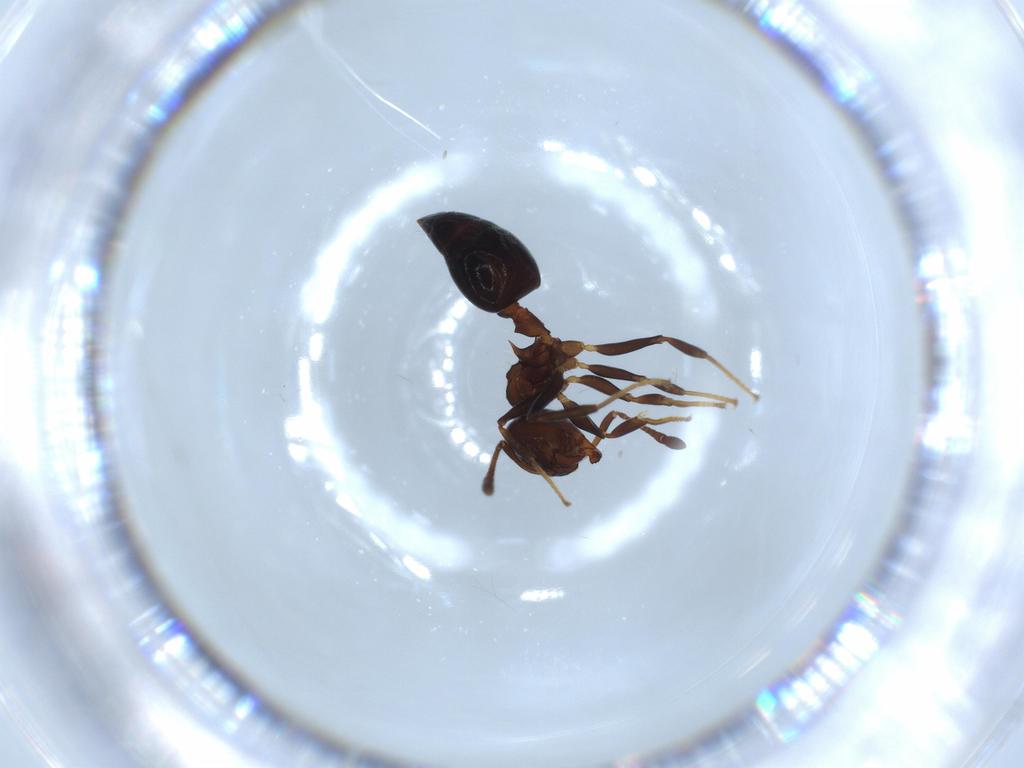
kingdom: Animalia
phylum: Arthropoda
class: Insecta
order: Hymenoptera
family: Formicidae
